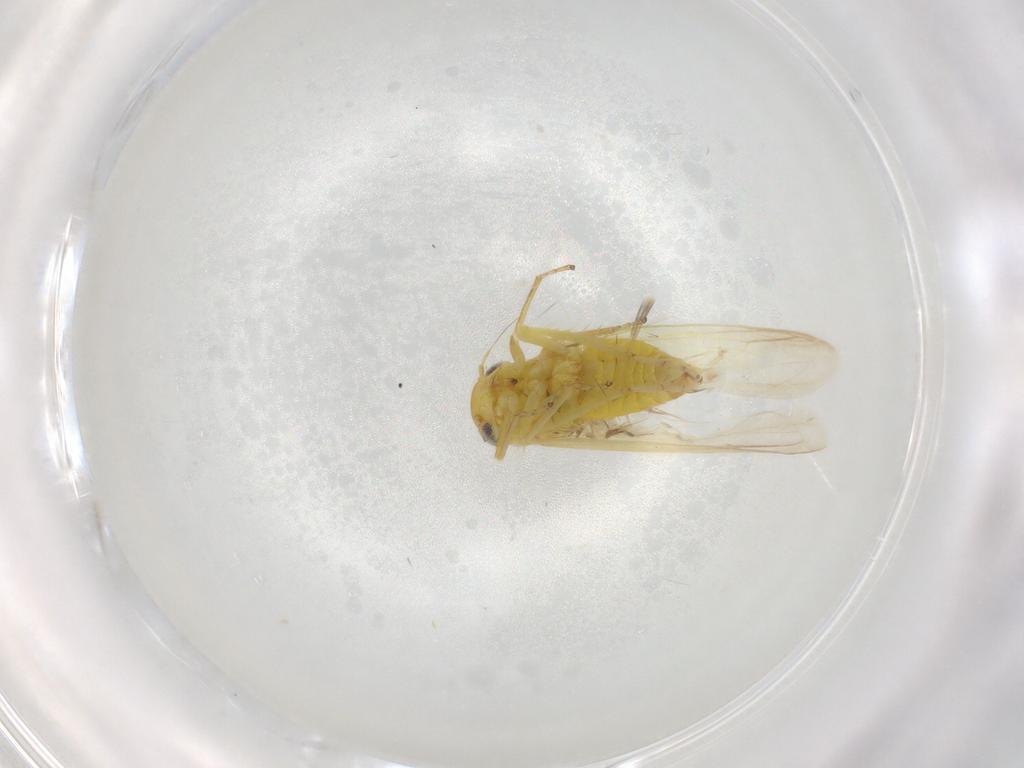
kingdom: Animalia
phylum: Arthropoda
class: Insecta
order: Hemiptera
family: Cicadellidae
